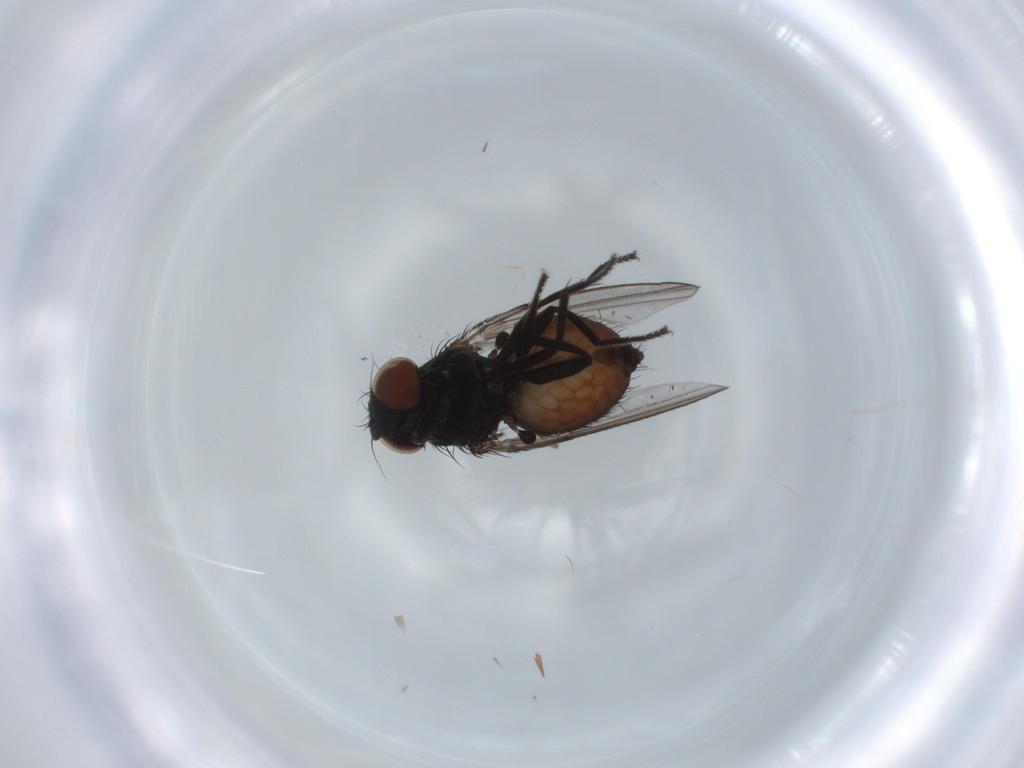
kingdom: Animalia
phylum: Arthropoda
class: Insecta
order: Diptera
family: Milichiidae
